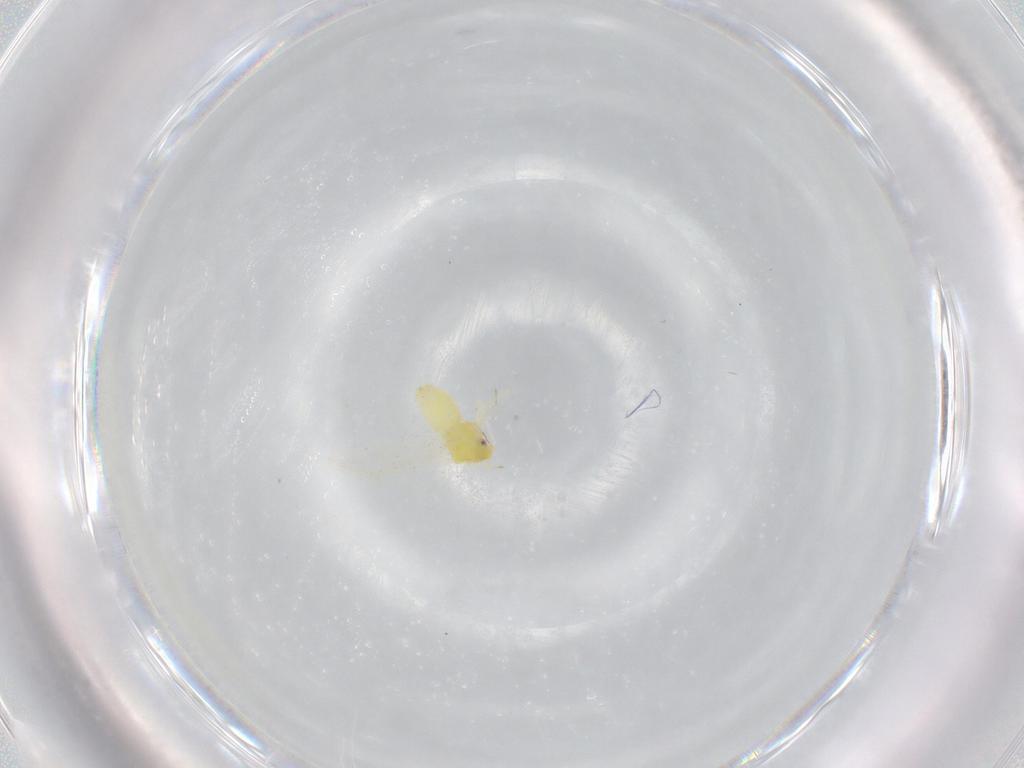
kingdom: Animalia
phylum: Arthropoda
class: Insecta
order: Hemiptera
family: Aleyrodidae
